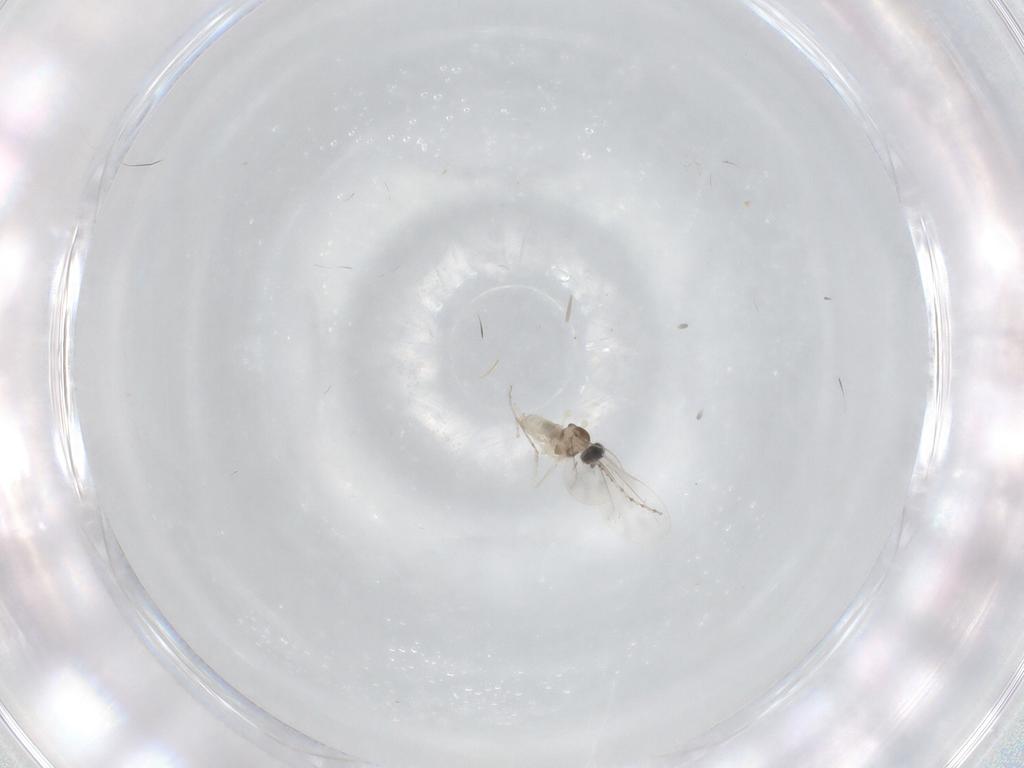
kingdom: Animalia
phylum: Arthropoda
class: Insecta
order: Diptera
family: Cecidomyiidae
